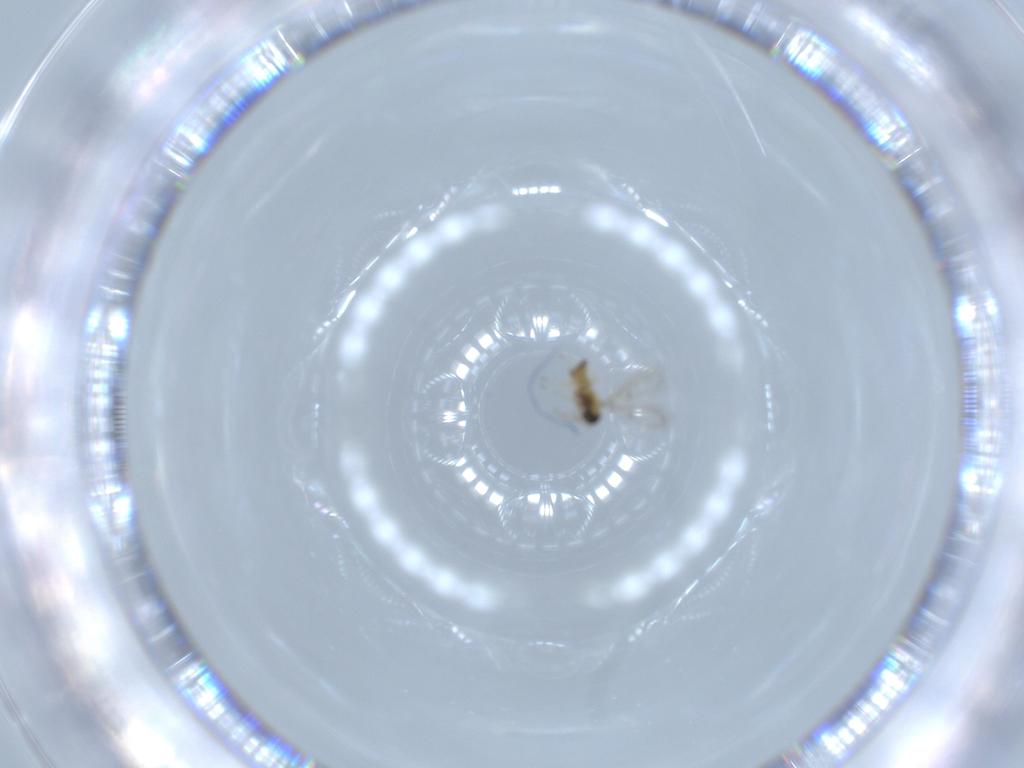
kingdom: Animalia
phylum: Arthropoda
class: Insecta
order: Hymenoptera
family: Trichogrammatidae
